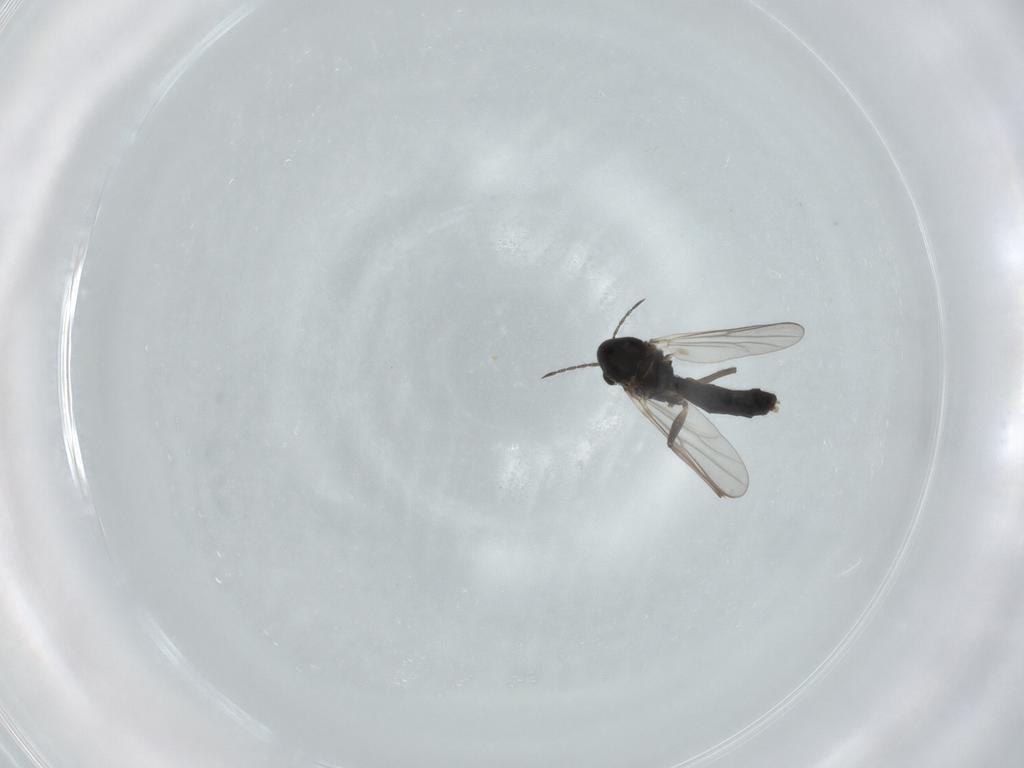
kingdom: Animalia
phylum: Arthropoda
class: Insecta
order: Diptera
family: Chironomidae
